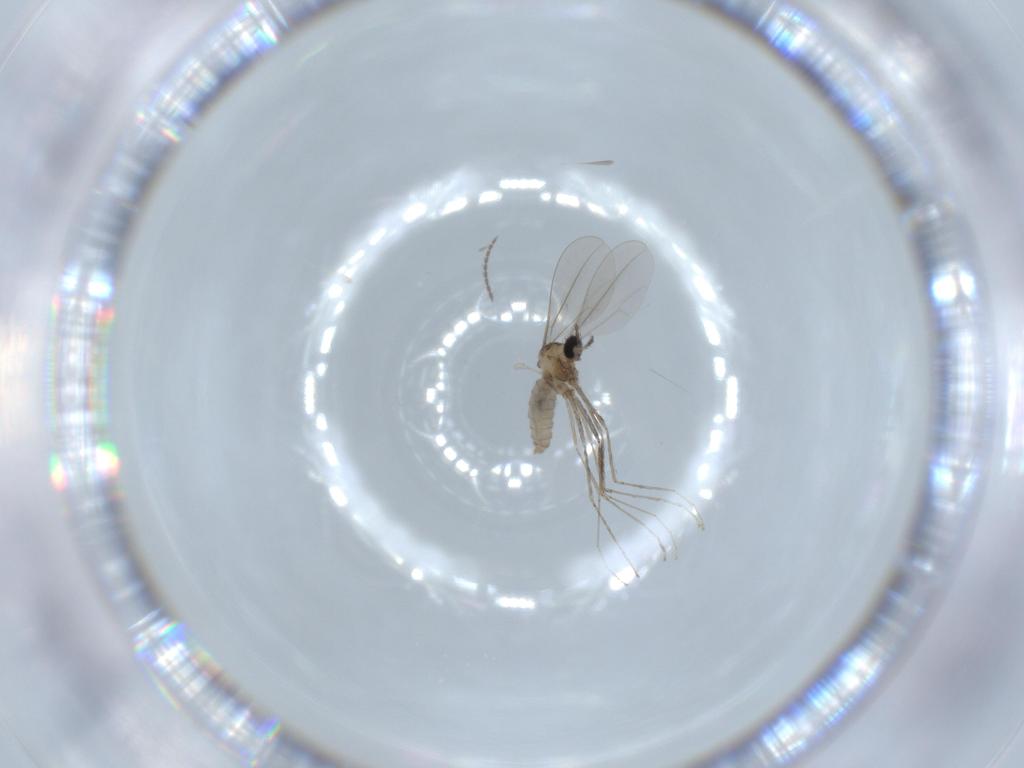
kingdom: Animalia
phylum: Arthropoda
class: Insecta
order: Diptera
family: Cecidomyiidae
